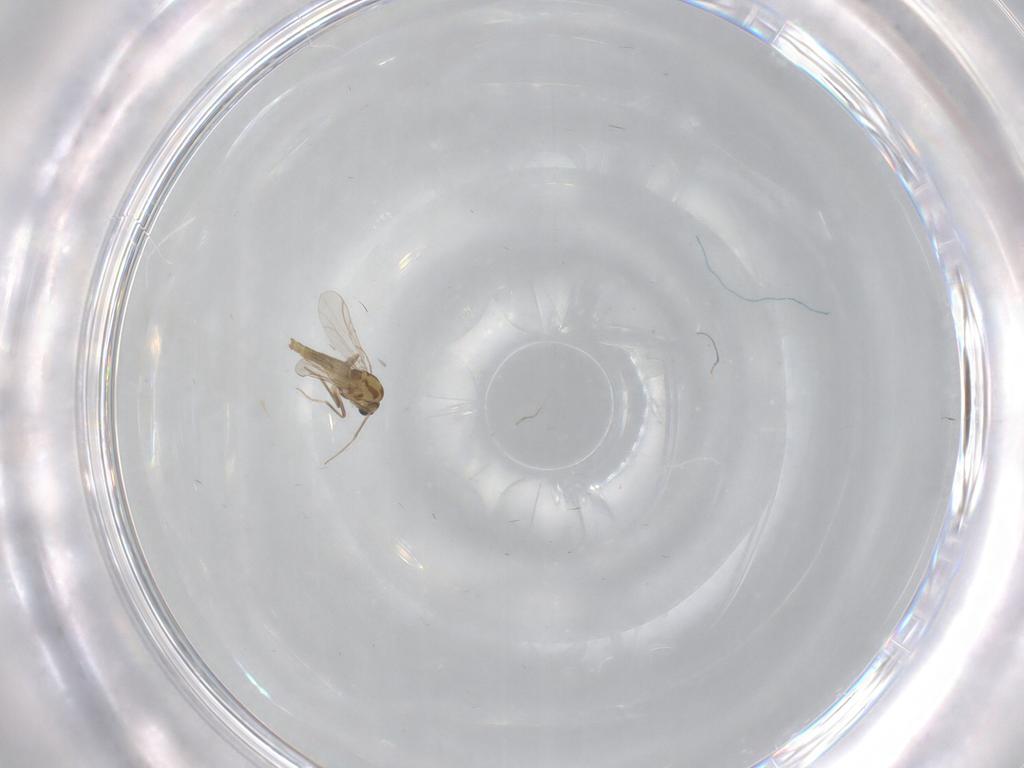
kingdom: Animalia
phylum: Arthropoda
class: Insecta
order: Diptera
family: Chironomidae
